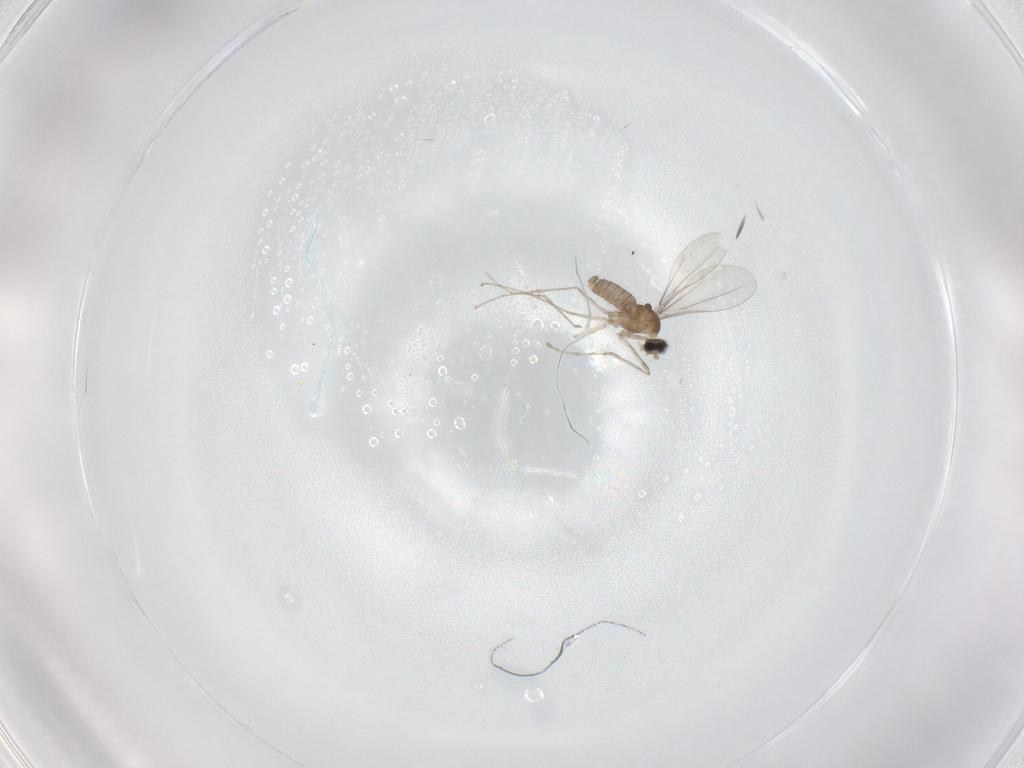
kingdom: Animalia
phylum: Arthropoda
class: Insecta
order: Diptera
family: Cecidomyiidae
